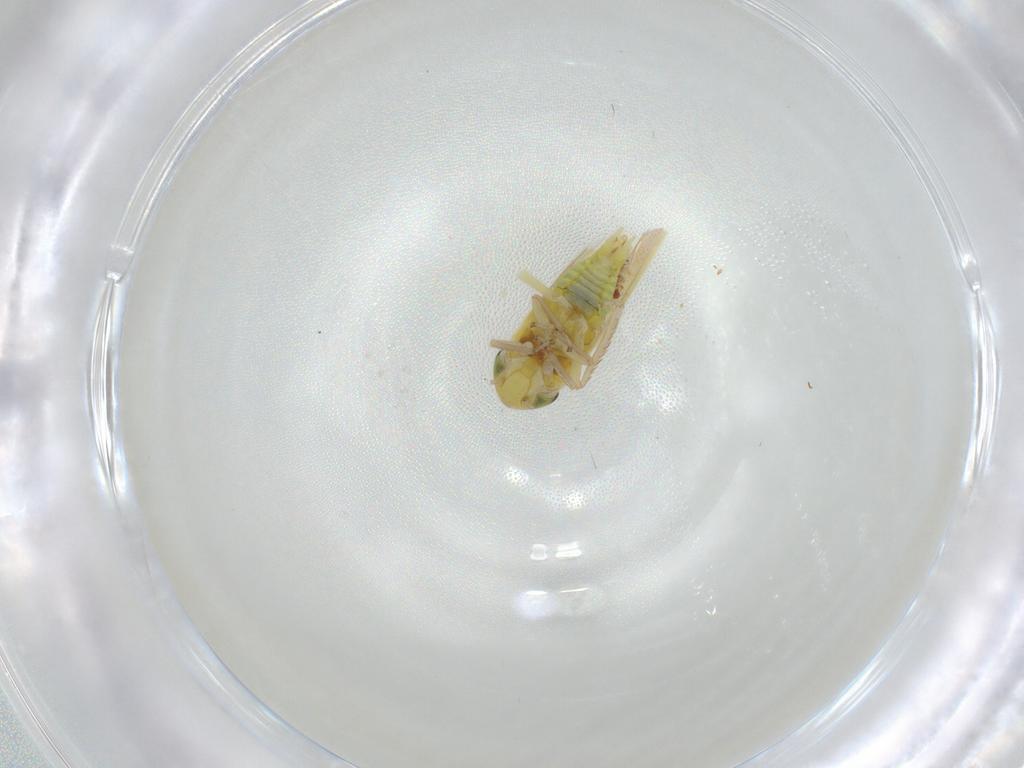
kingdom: Animalia
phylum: Arthropoda
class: Insecta
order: Hemiptera
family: Cicadellidae
